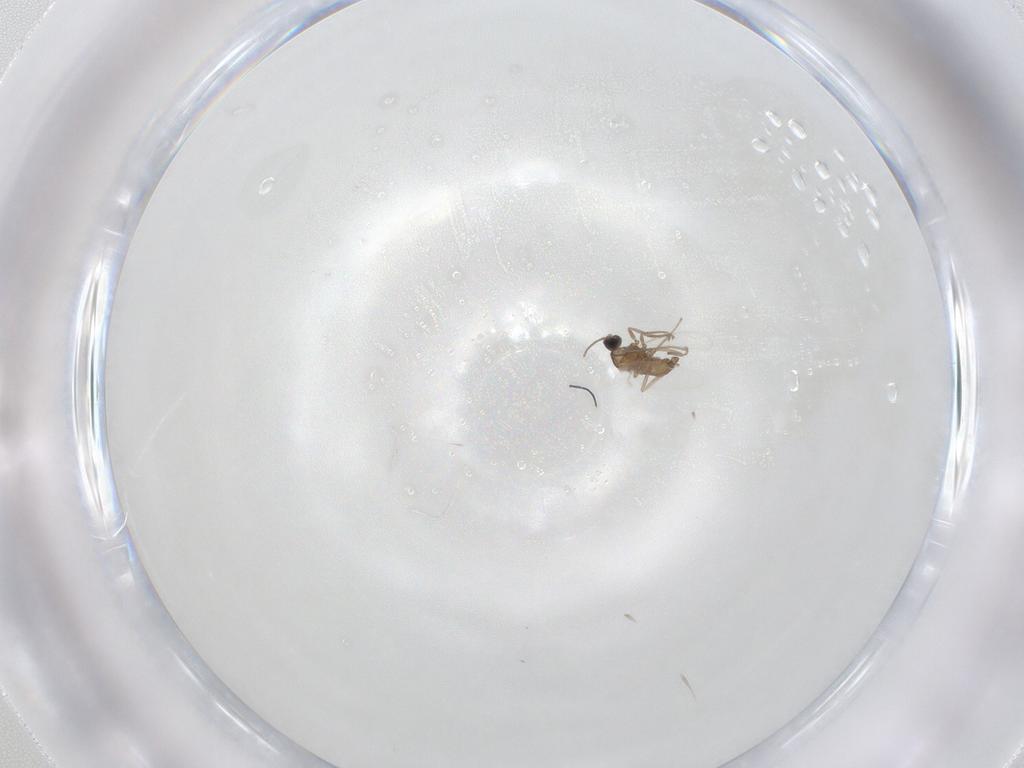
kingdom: Animalia
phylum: Arthropoda
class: Insecta
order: Diptera
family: Cecidomyiidae
